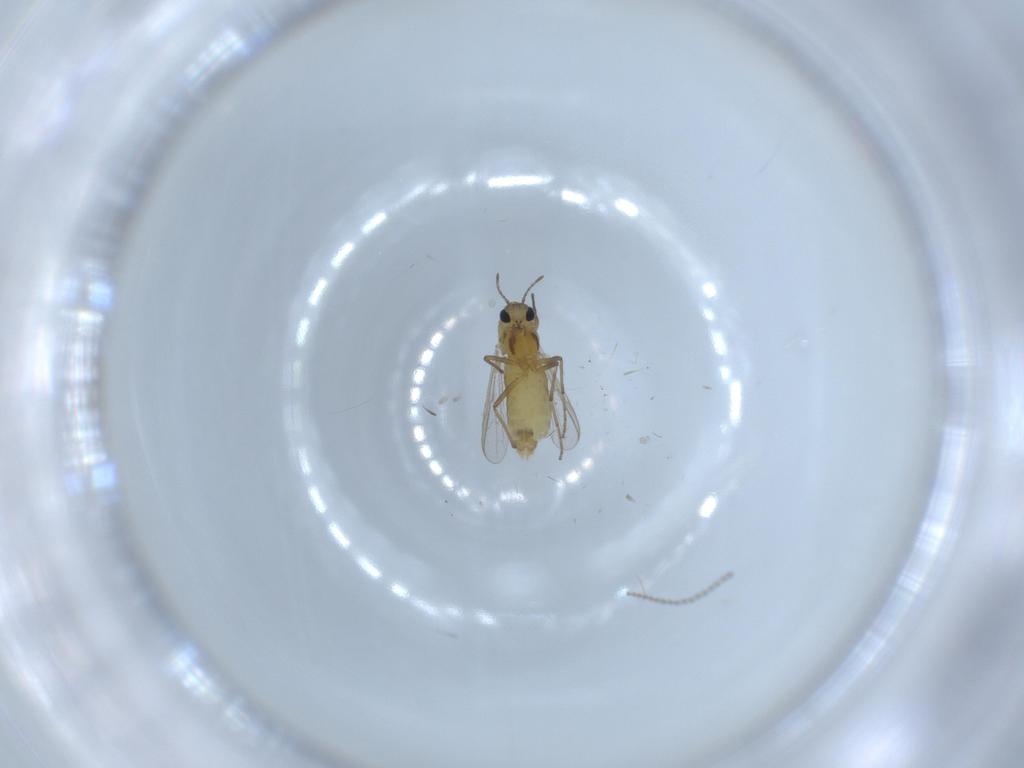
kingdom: Animalia
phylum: Arthropoda
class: Insecta
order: Diptera
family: Chironomidae
